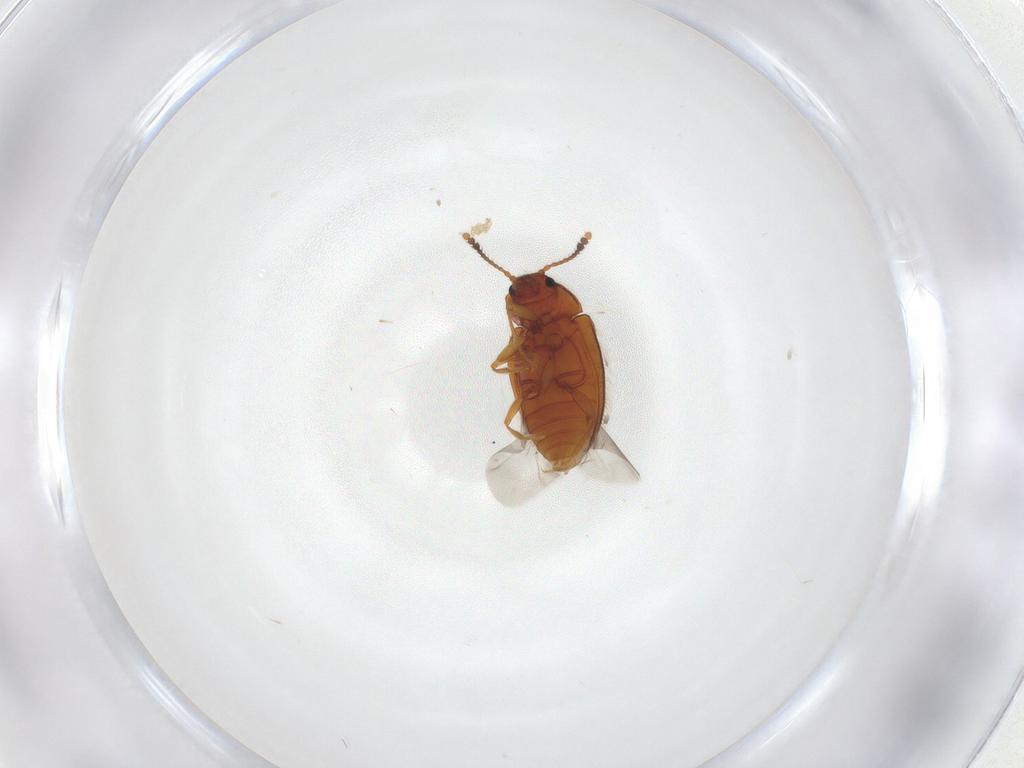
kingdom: Animalia
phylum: Arthropoda
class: Insecta
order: Coleoptera
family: Erotylidae
